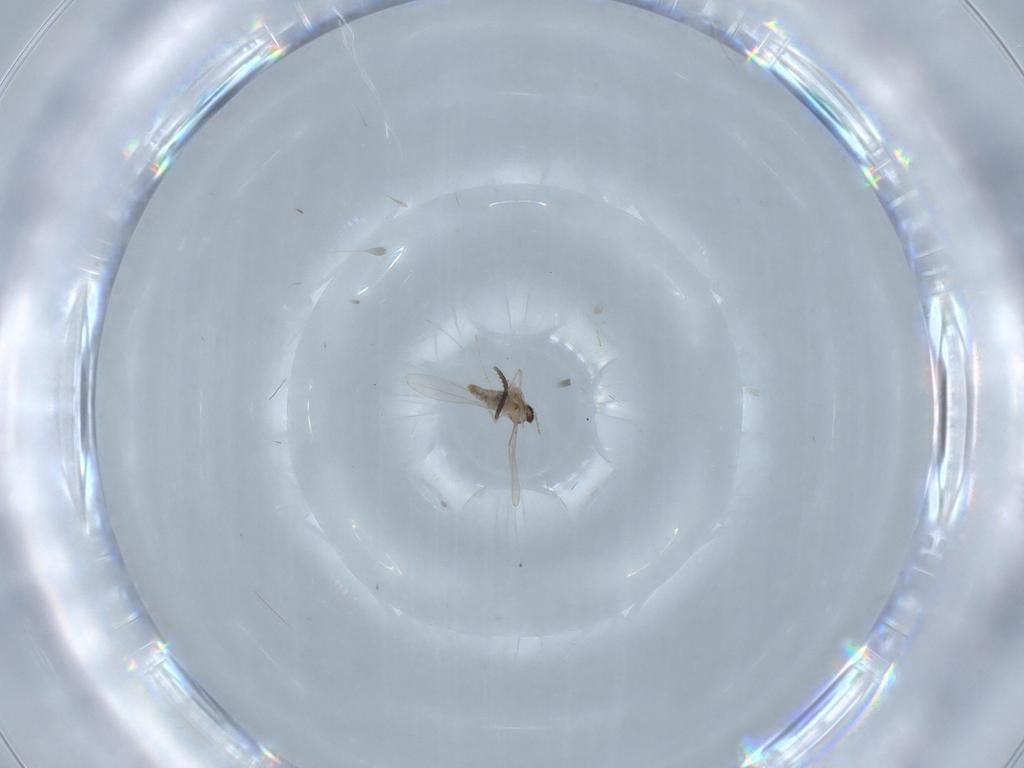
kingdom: Animalia
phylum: Arthropoda
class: Insecta
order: Diptera
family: Cecidomyiidae
